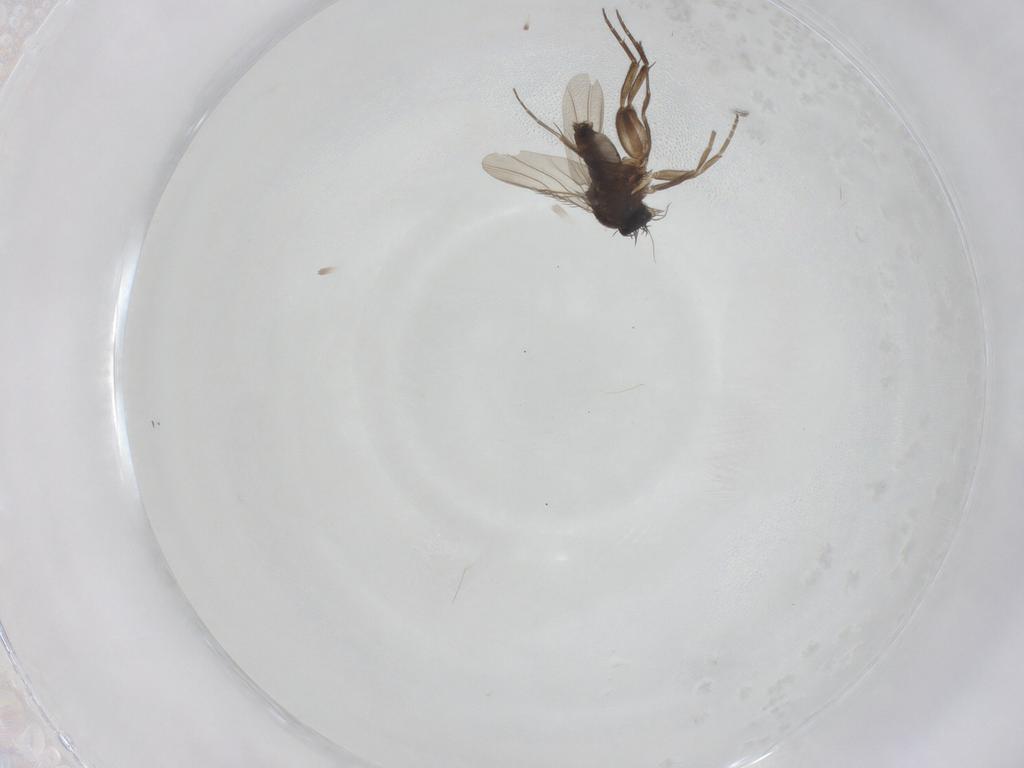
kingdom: Animalia
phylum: Arthropoda
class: Insecta
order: Diptera
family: Phoridae
